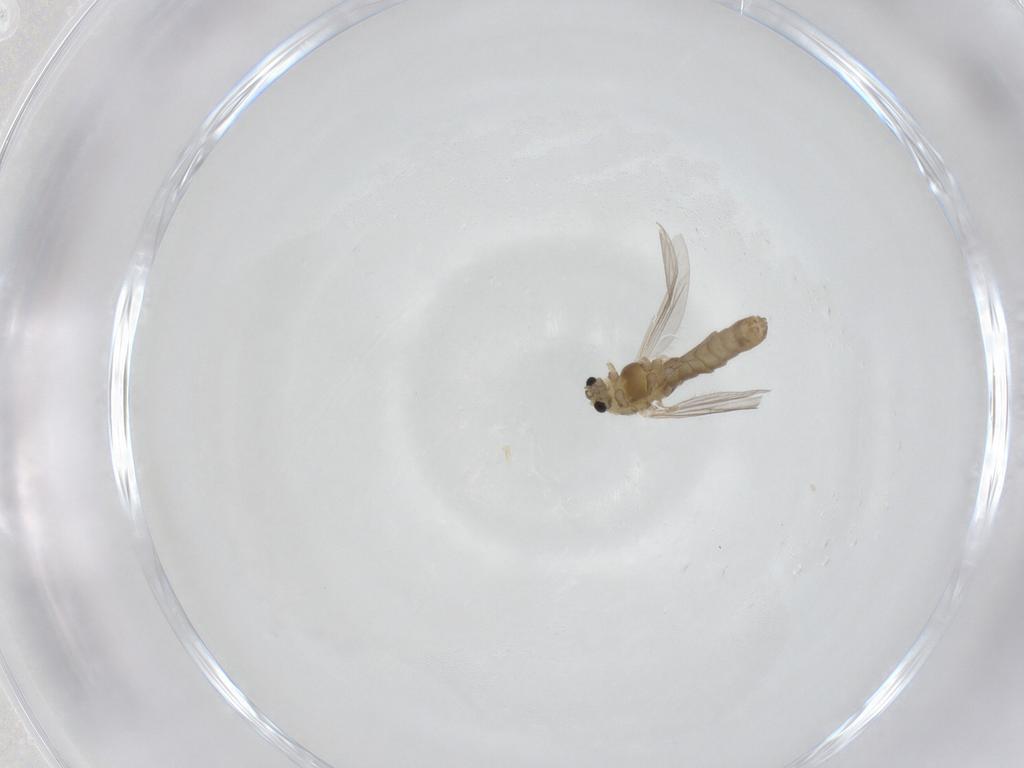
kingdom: Animalia
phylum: Arthropoda
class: Insecta
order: Diptera
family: Chironomidae
